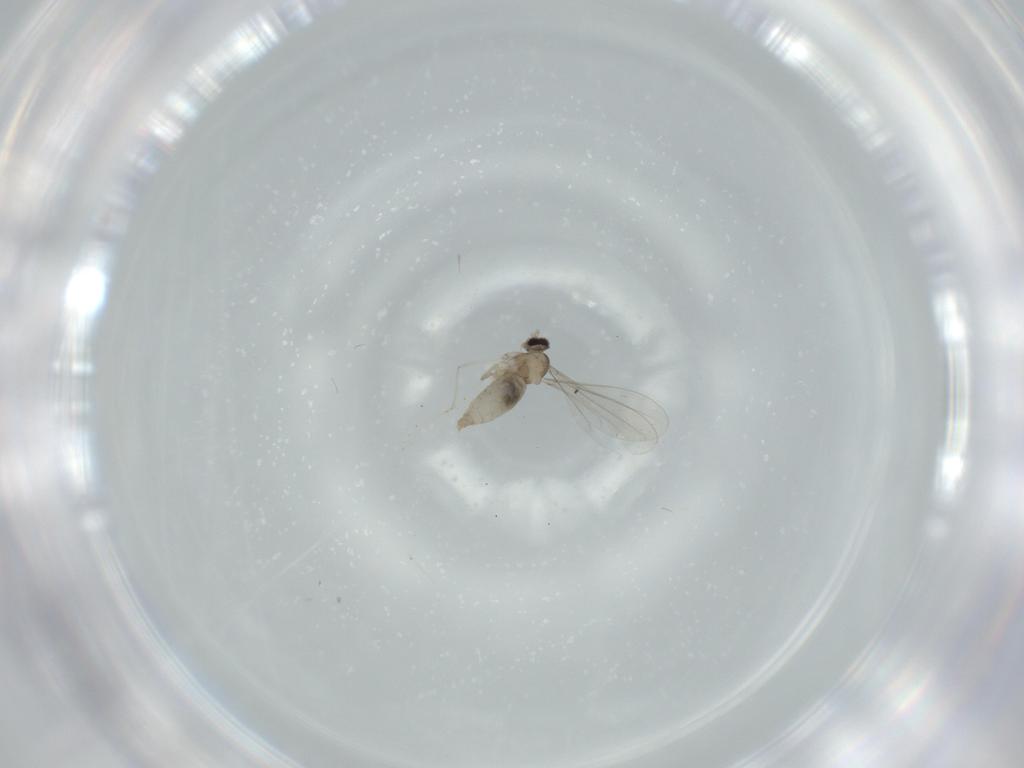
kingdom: Animalia
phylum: Arthropoda
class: Insecta
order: Diptera
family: Cecidomyiidae
